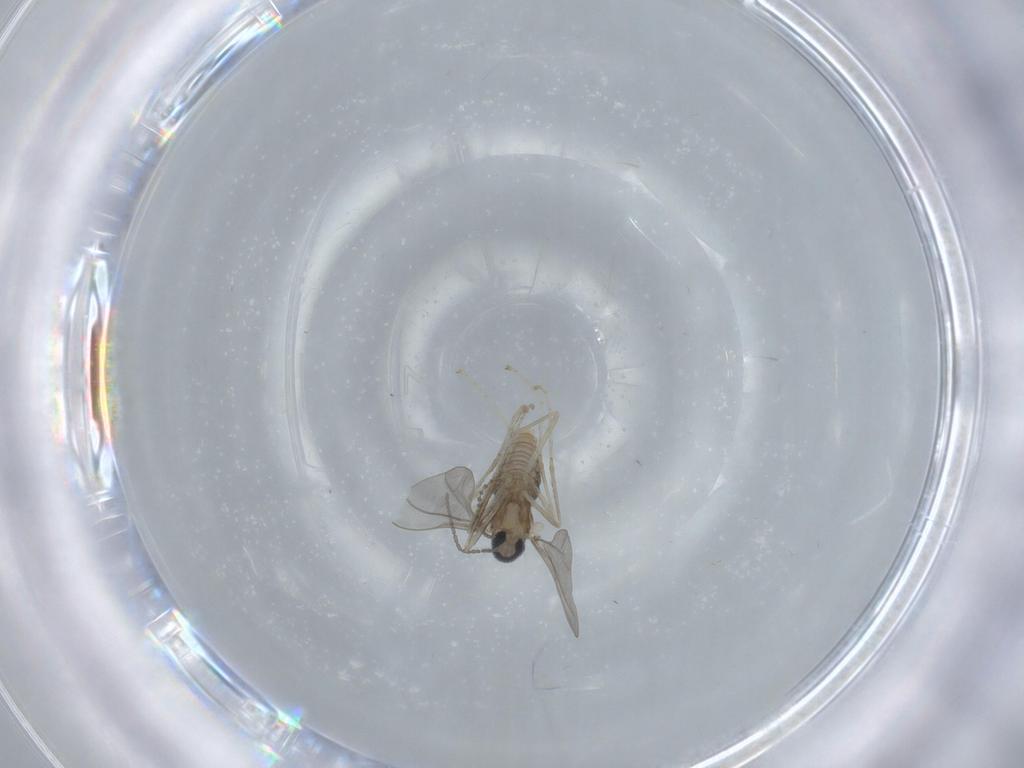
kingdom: Animalia
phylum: Arthropoda
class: Insecta
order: Diptera
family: Cecidomyiidae
